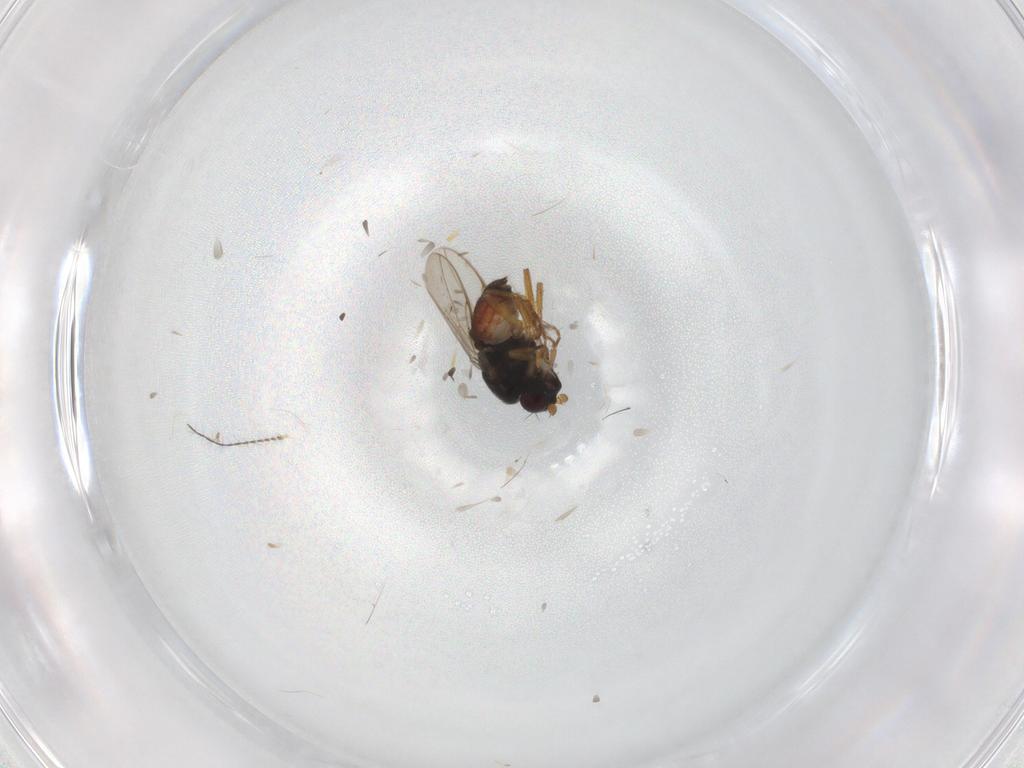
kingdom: Animalia
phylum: Arthropoda
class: Insecta
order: Diptera
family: Sphaeroceridae
